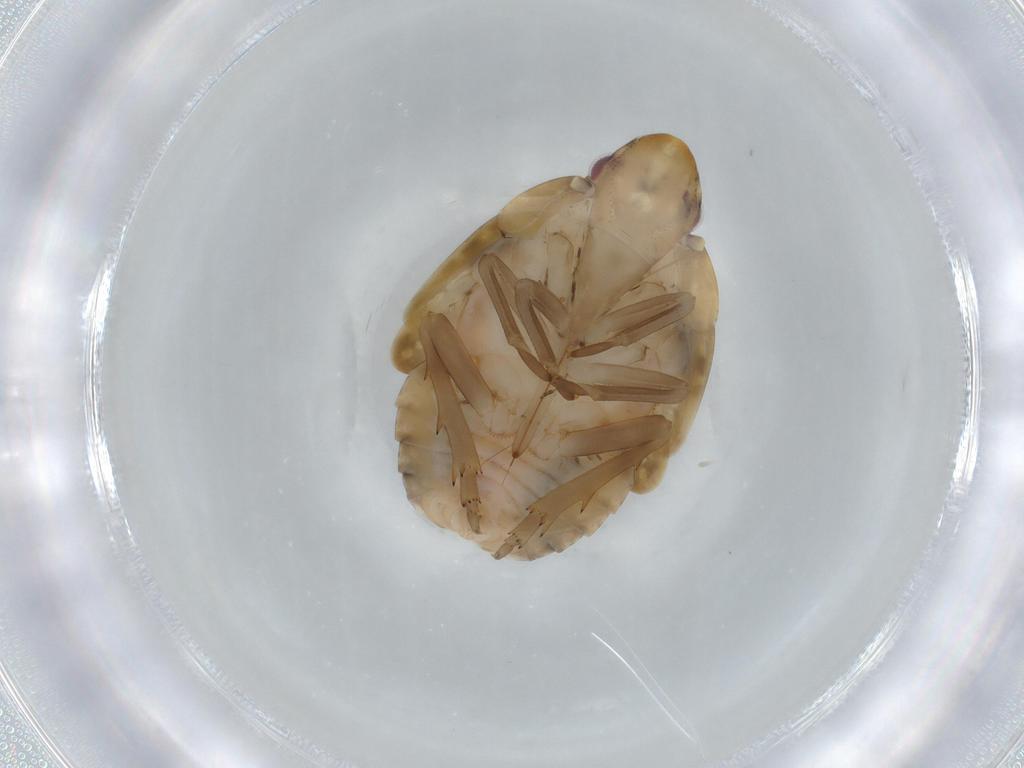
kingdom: Animalia
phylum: Arthropoda
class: Insecta
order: Hemiptera
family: Flatidae
